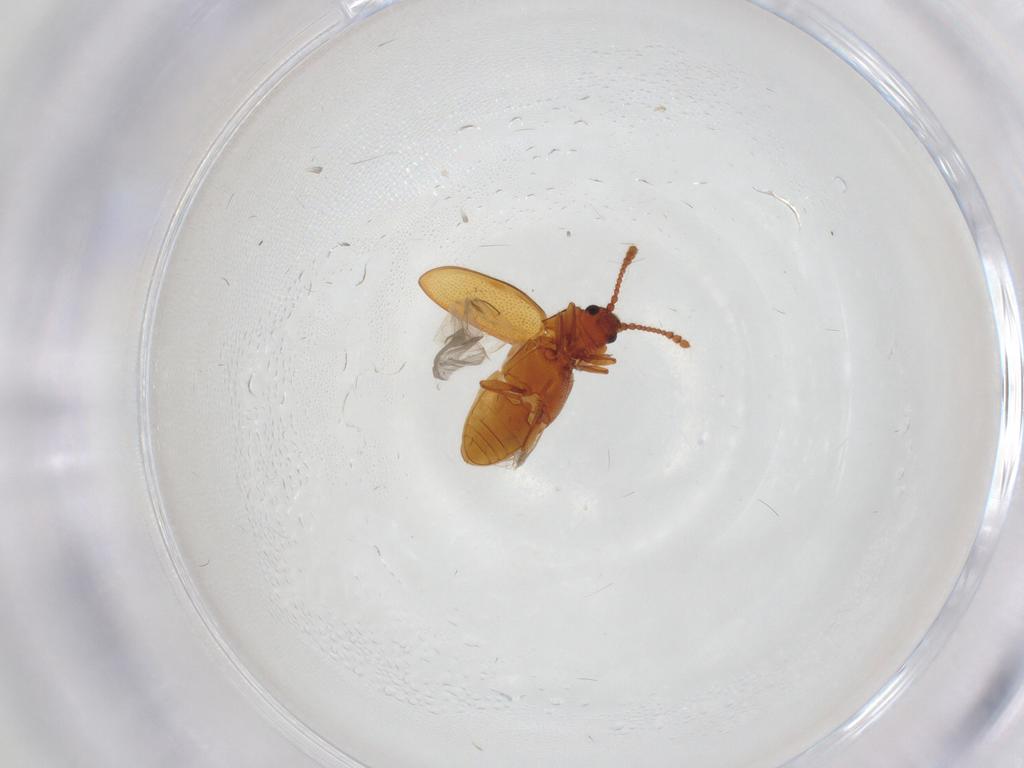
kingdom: Animalia
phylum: Arthropoda
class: Insecta
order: Coleoptera
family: Cryptophagidae
